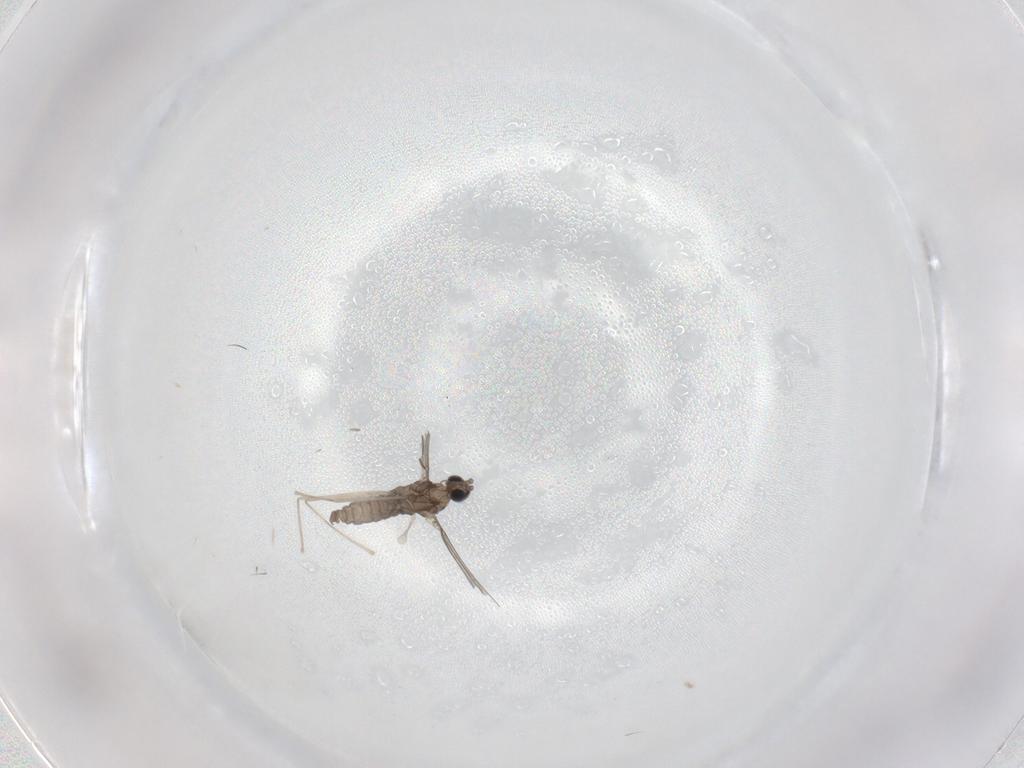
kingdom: Animalia
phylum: Arthropoda
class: Insecta
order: Diptera
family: Cecidomyiidae
